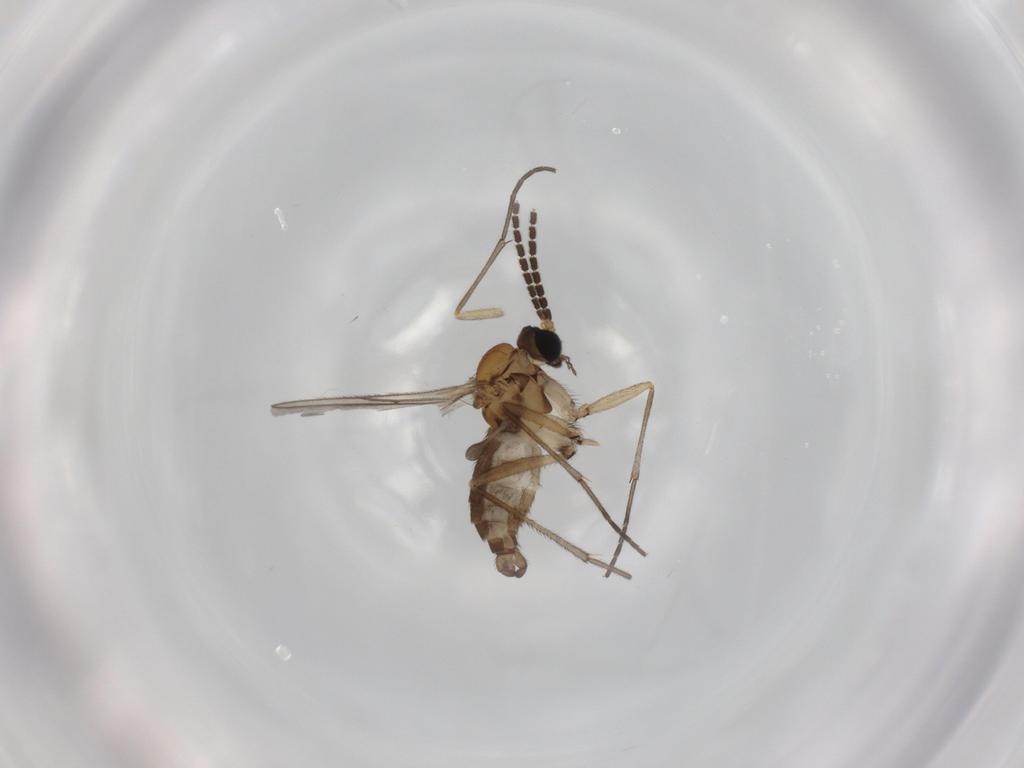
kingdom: Animalia
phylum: Arthropoda
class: Insecta
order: Diptera
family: Sciaridae
